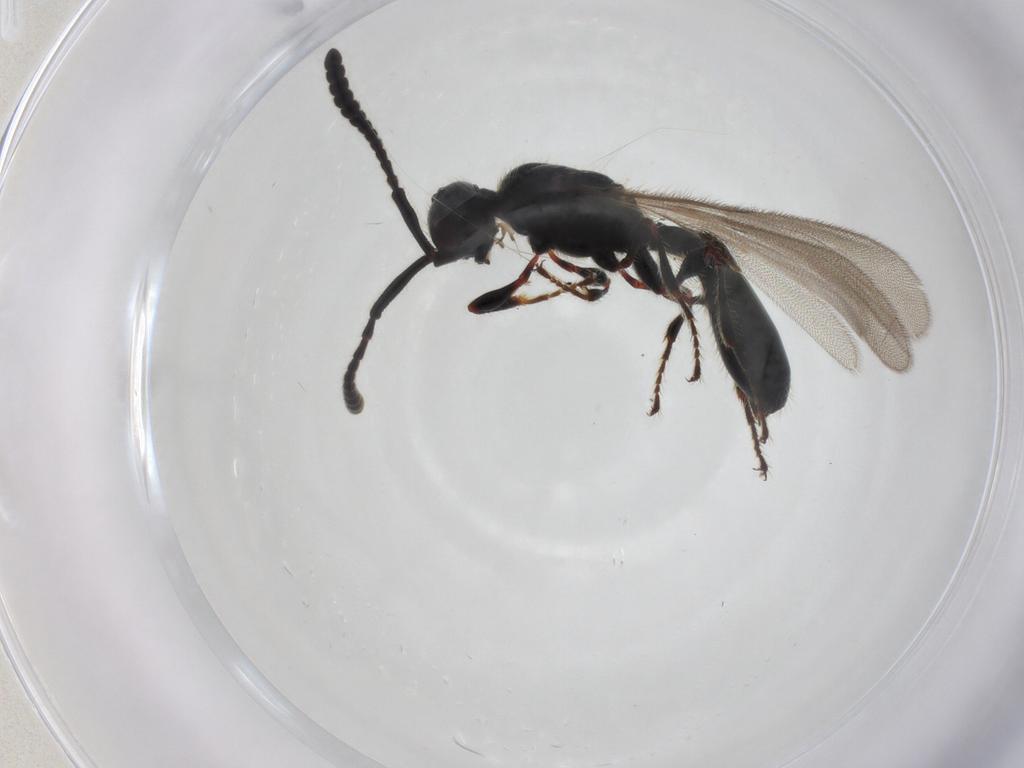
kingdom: Animalia
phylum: Arthropoda
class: Insecta
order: Hymenoptera
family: Diapriidae
